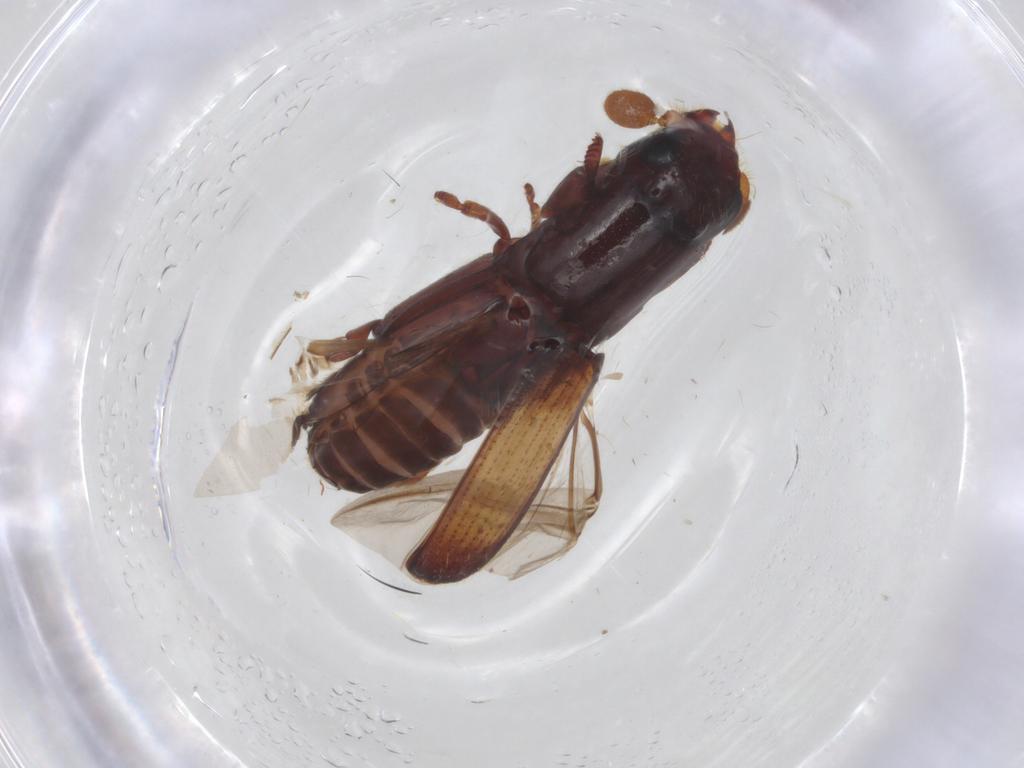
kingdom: Animalia
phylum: Arthropoda
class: Insecta
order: Coleoptera
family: Curculionidae
